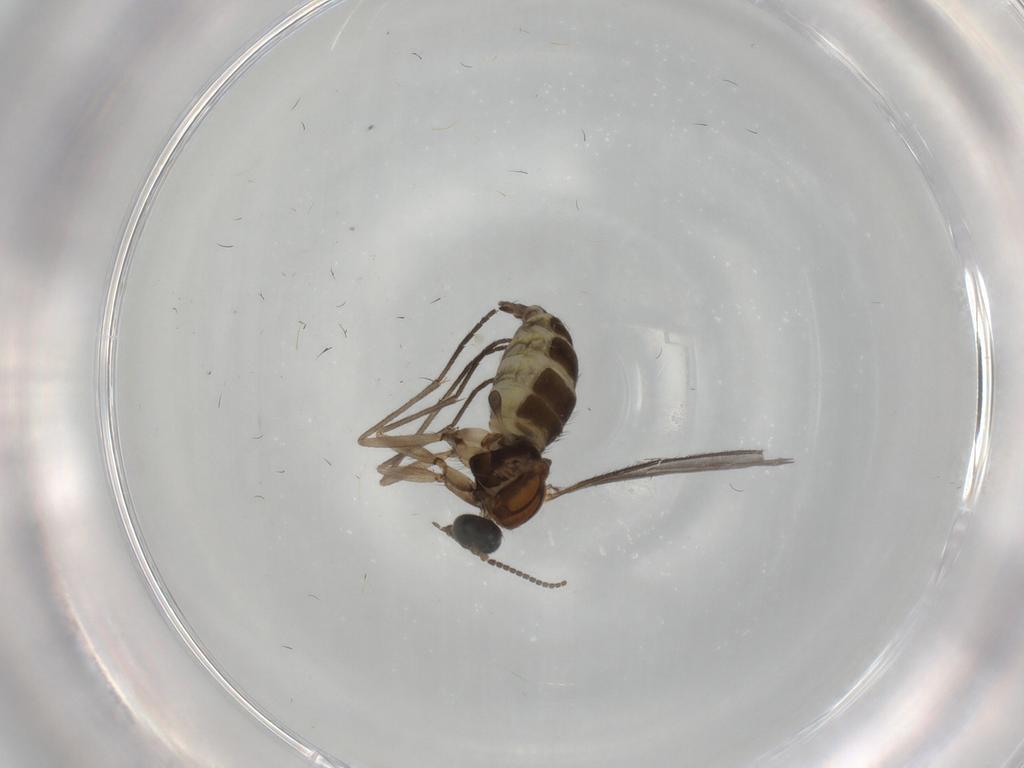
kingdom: Animalia
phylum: Arthropoda
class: Insecta
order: Diptera
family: Sciaridae
